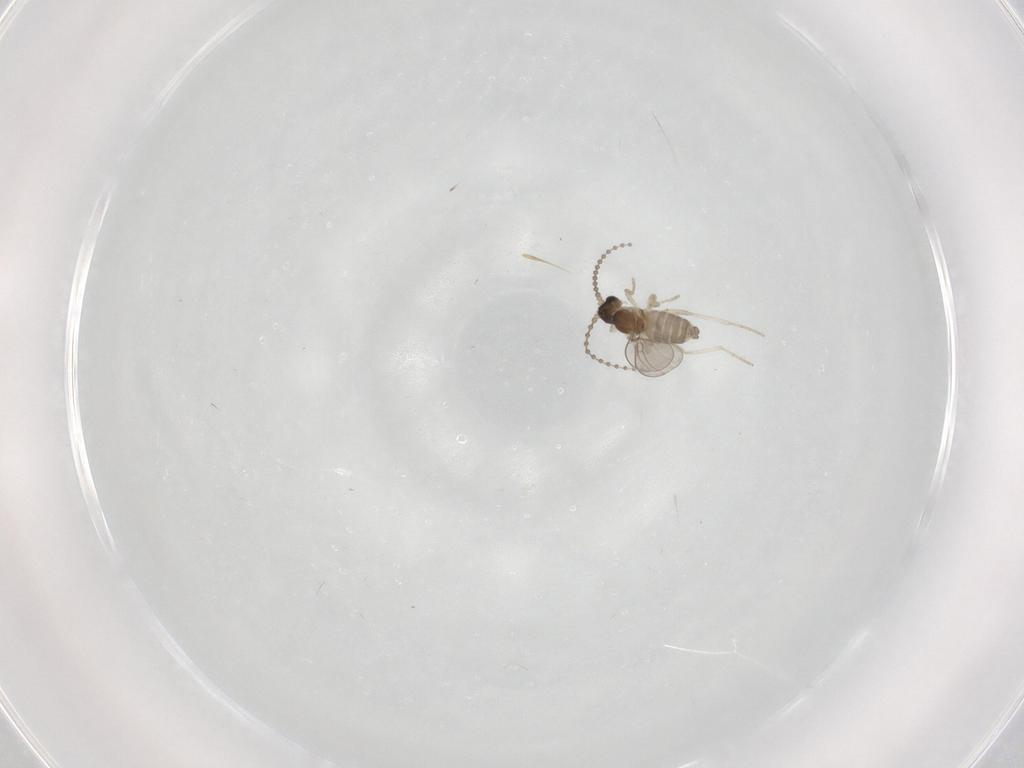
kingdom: Animalia
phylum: Arthropoda
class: Insecta
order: Diptera
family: Cecidomyiidae
